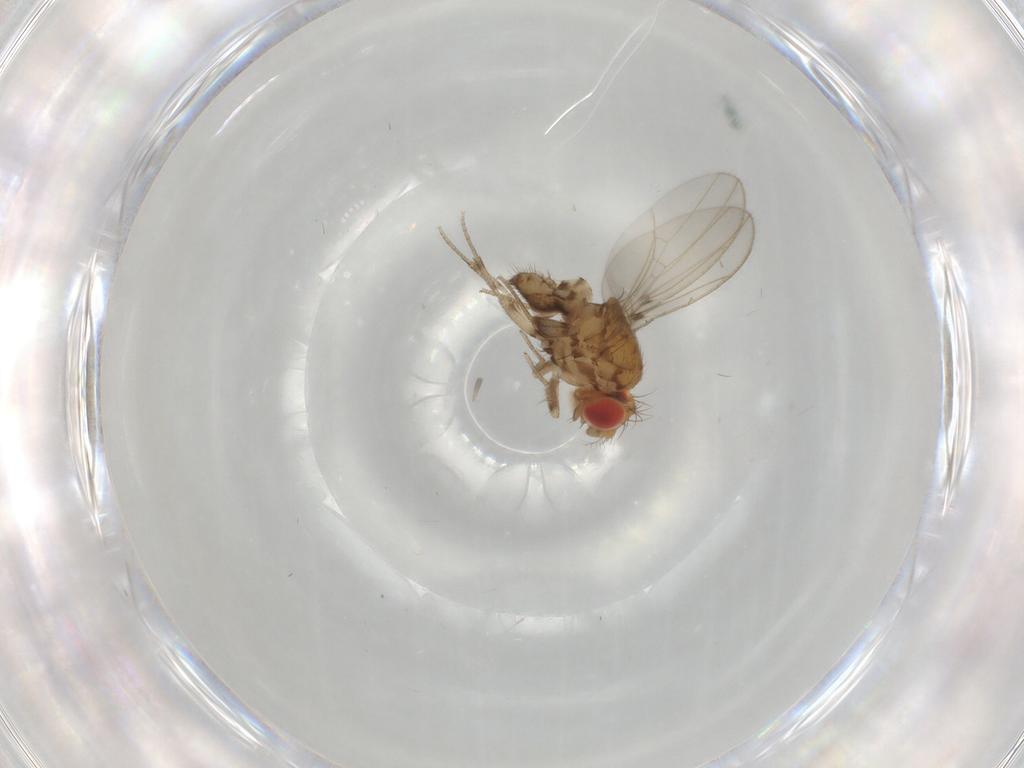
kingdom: Animalia
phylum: Arthropoda
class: Insecta
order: Diptera
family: Drosophilidae
